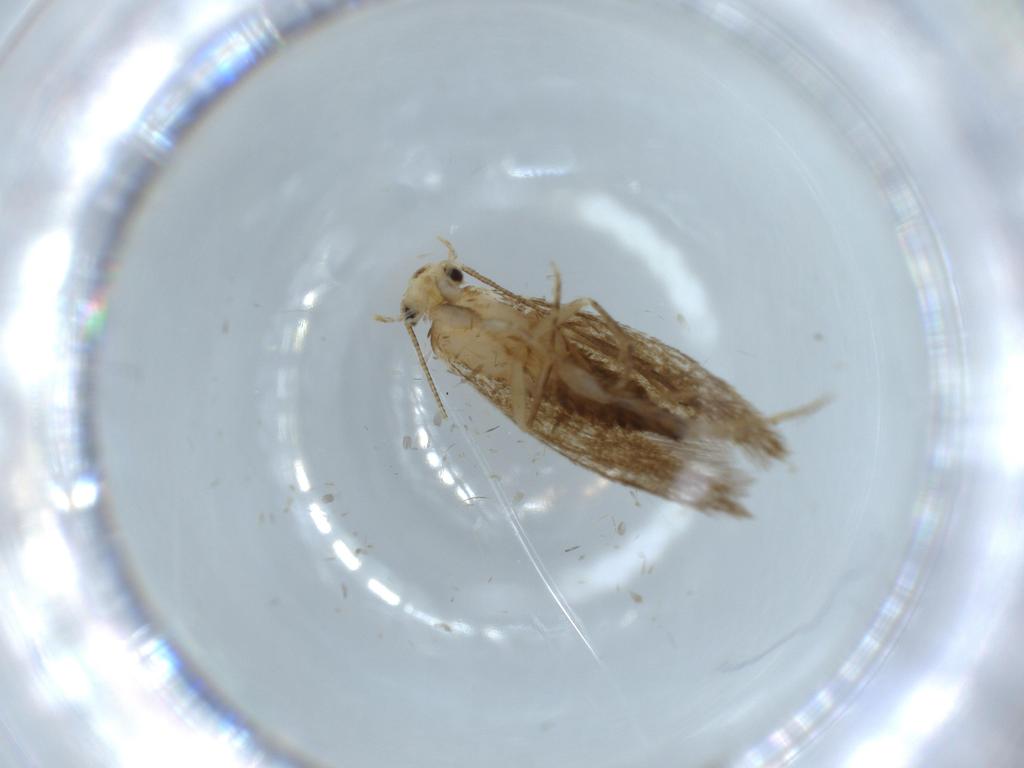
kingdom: Animalia
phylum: Arthropoda
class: Insecta
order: Lepidoptera
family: Tineidae
